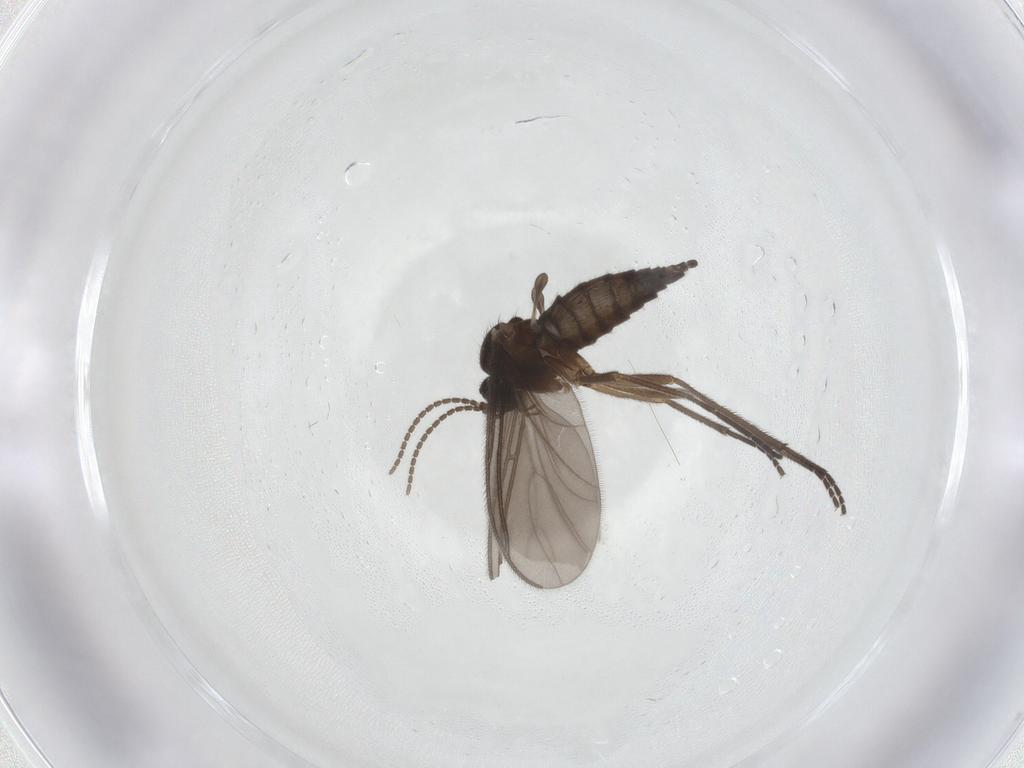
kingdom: Animalia
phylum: Arthropoda
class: Insecta
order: Diptera
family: Sciaridae
